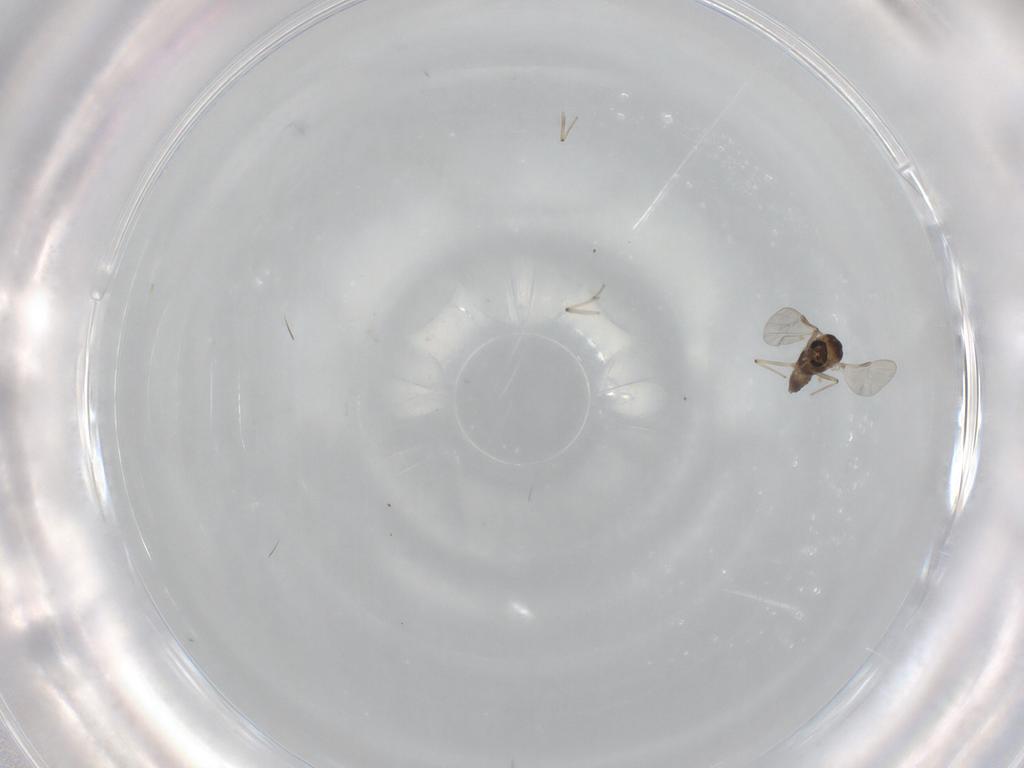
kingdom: Animalia
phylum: Arthropoda
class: Insecta
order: Diptera
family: Chironomidae
